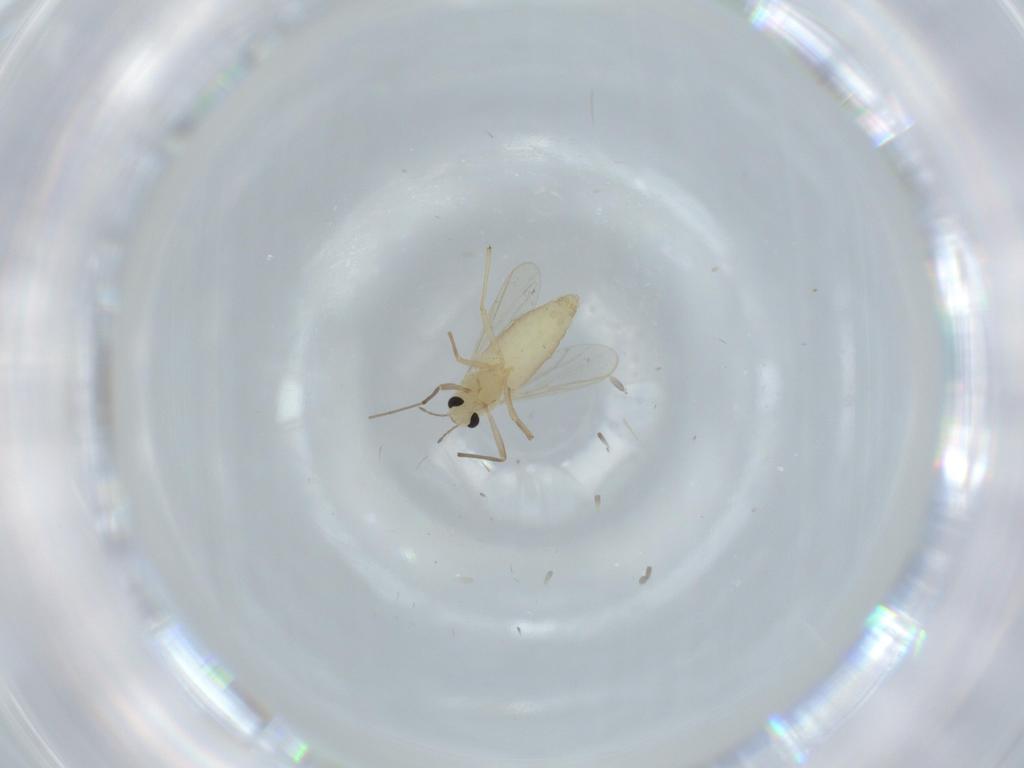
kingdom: Animalia
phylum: Arthropoda
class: Insecta
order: Diptera
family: Chironomidae
